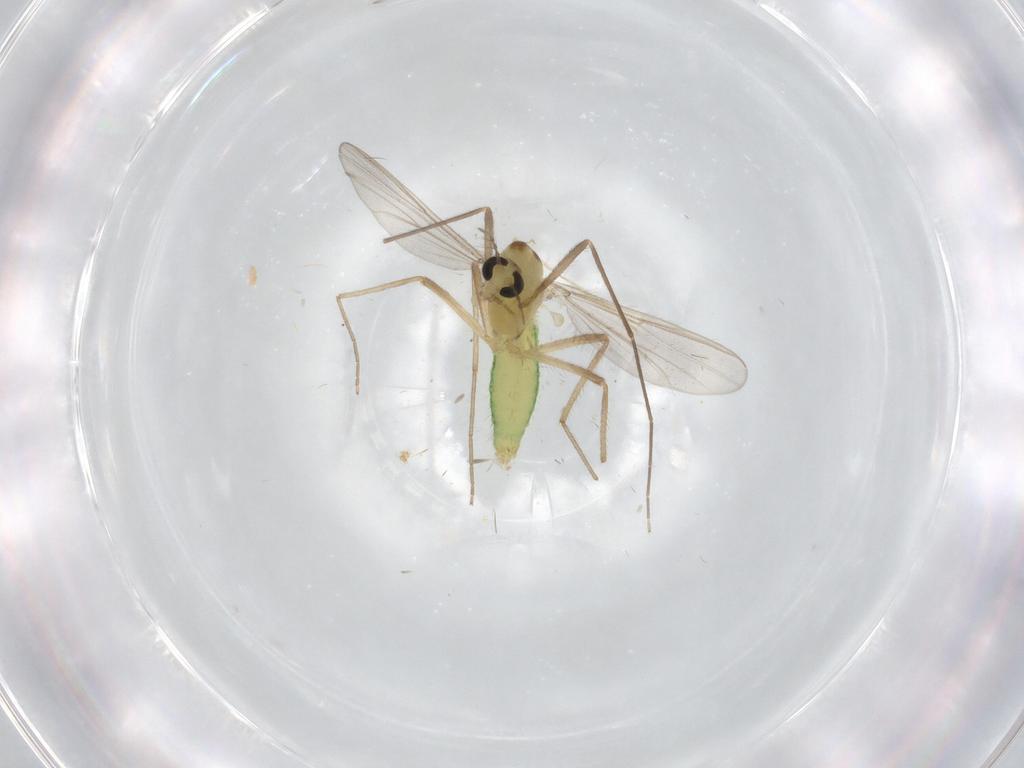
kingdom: Animalia
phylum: Arthropoda
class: Insecta
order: Diptera
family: Chironomidae
